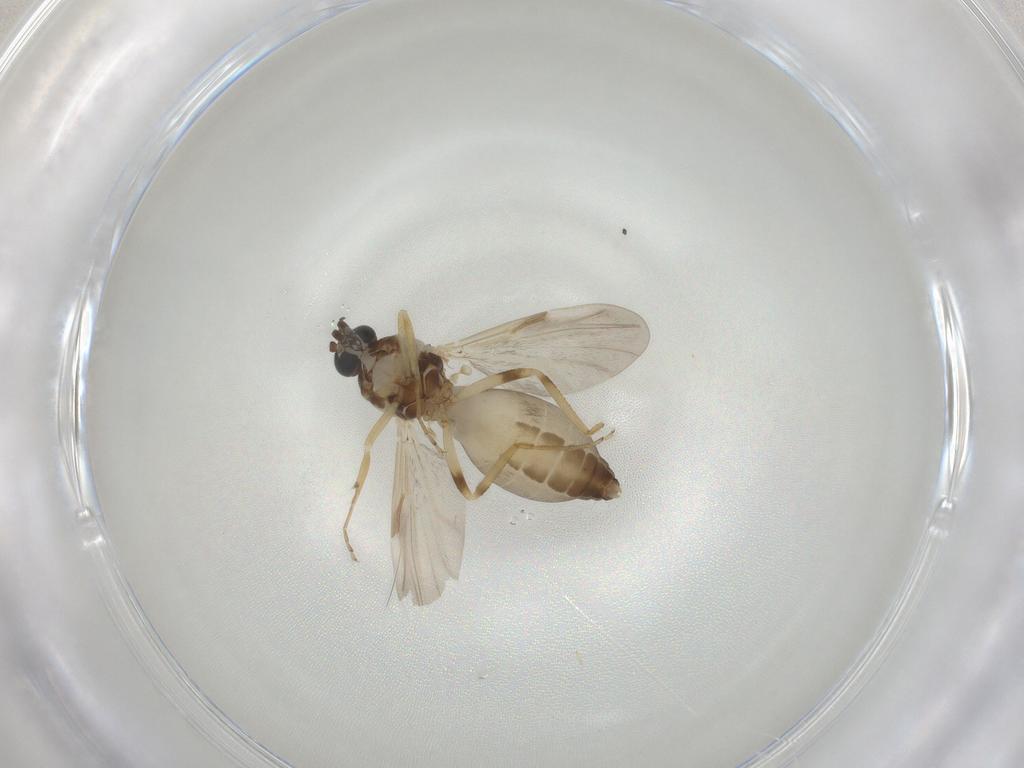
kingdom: Animalia
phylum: Arthropoda
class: Insecta
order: Diptera
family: Ceratopogonidae
